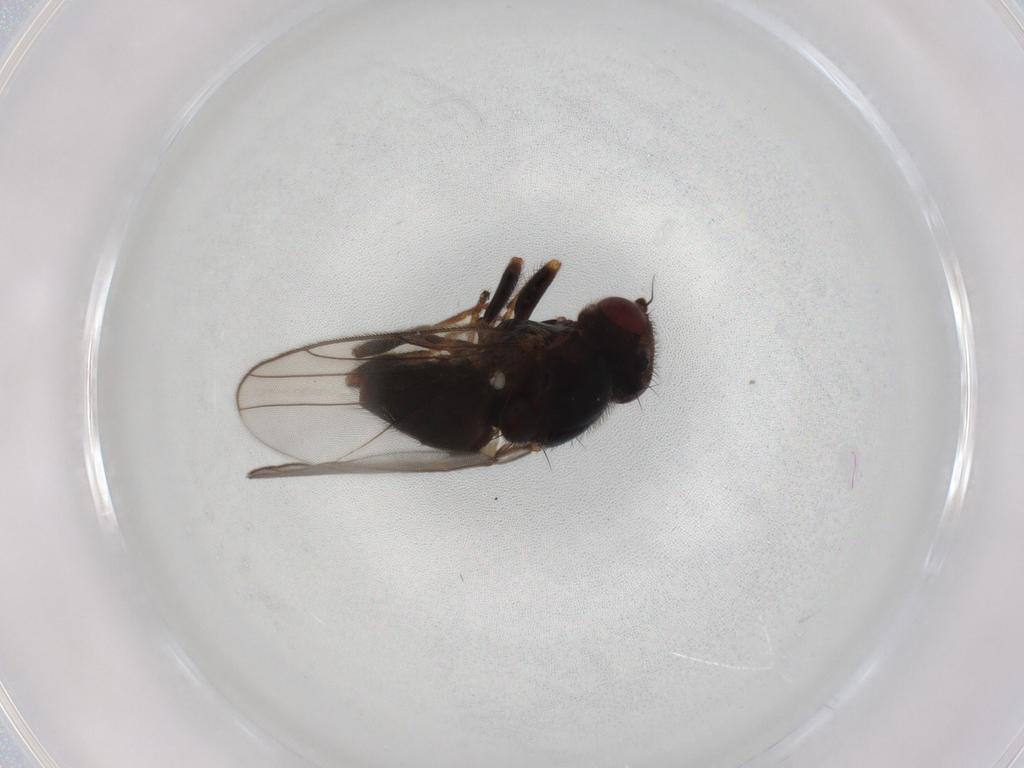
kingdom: Animalia
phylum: Arthropoda
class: Insecta
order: Diptera
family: Chloropidae
